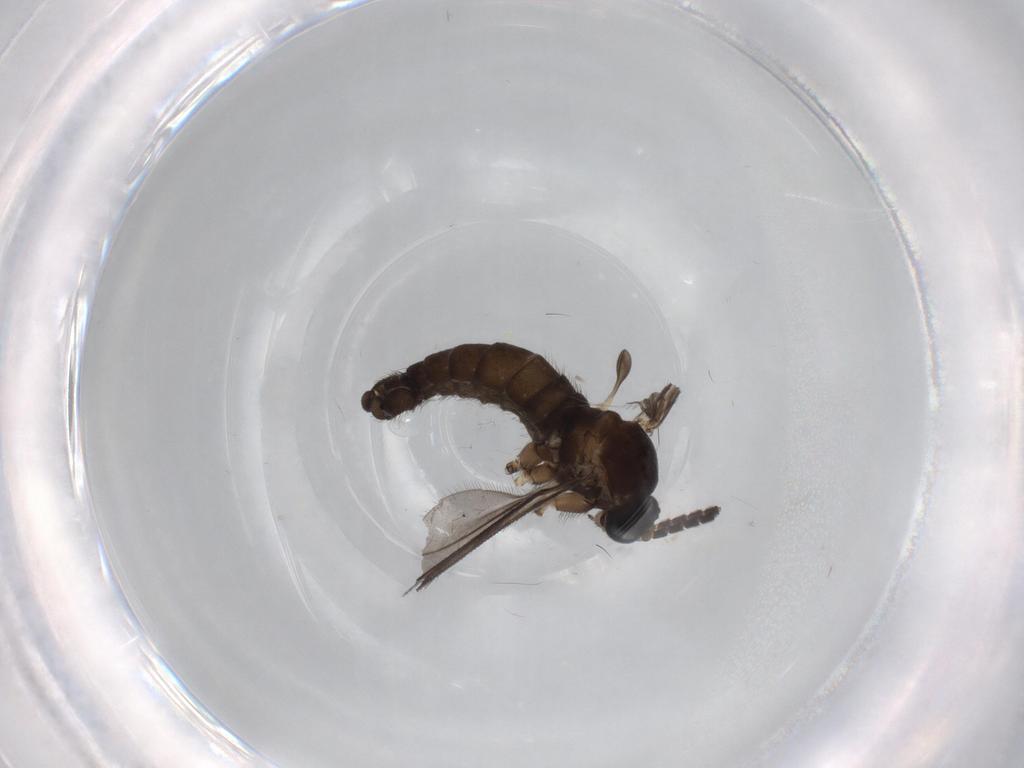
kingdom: Animalia
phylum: Arthropoda
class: Insecta
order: Diptera
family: Sciaridae
